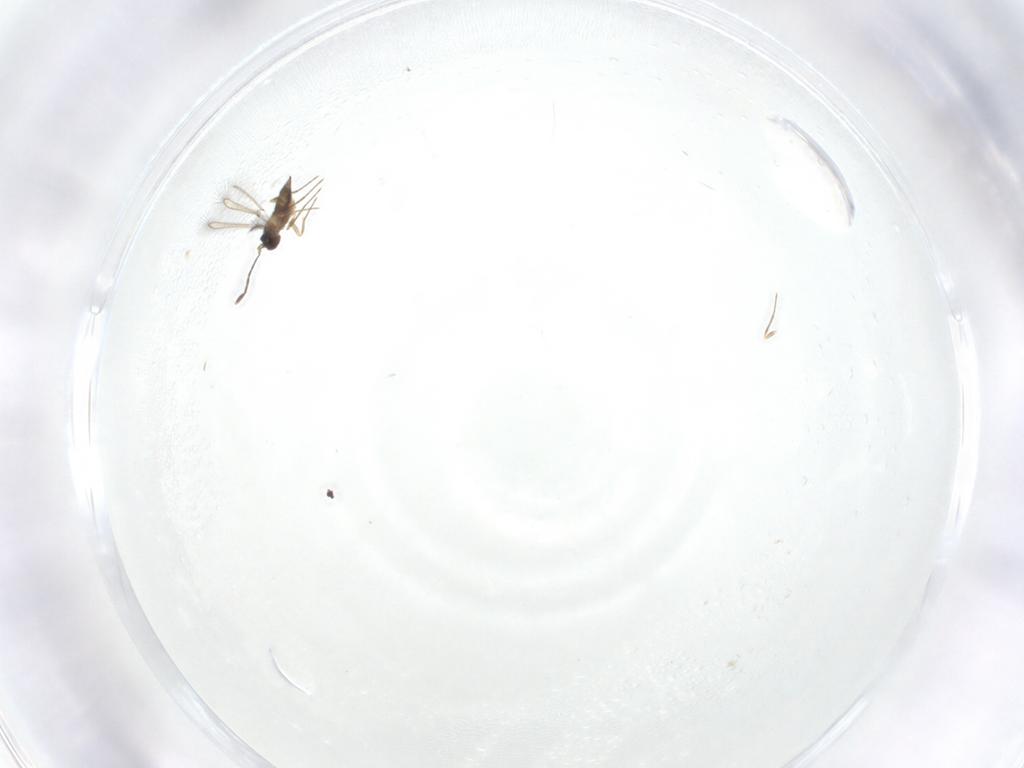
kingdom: Animalia
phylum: Arthropoda
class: Insecta
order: Hymenoptera
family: Mymaridae
